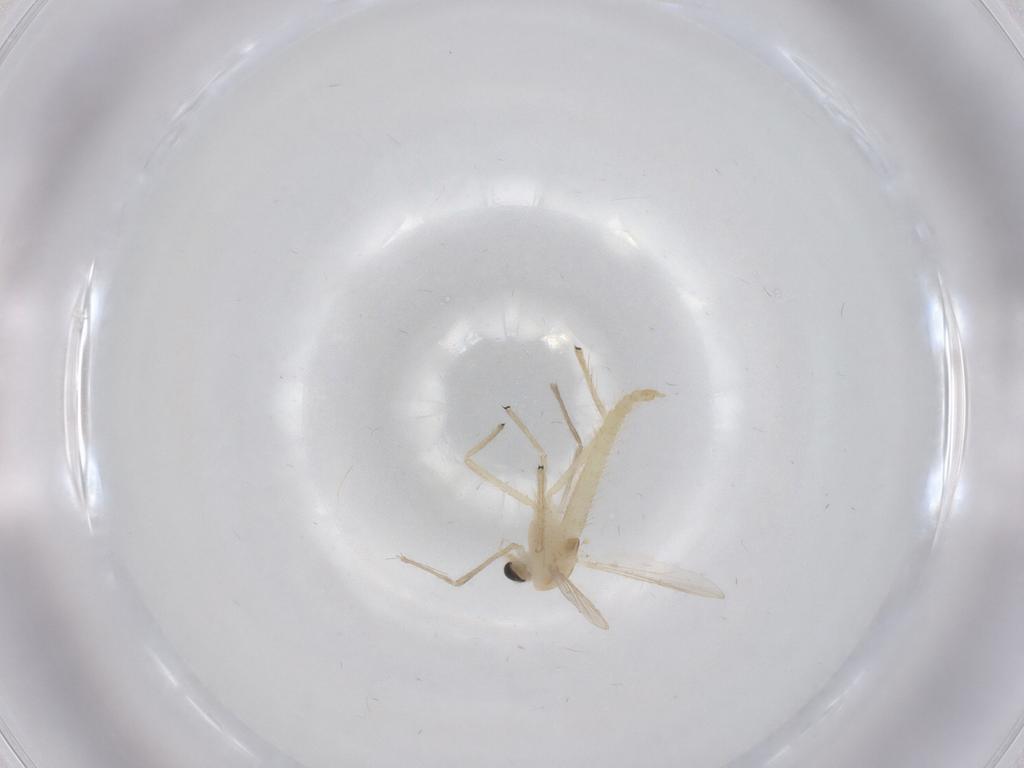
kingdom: Animalia
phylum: Arthropoda
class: Insecta
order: Diptera
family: Chironomidae
